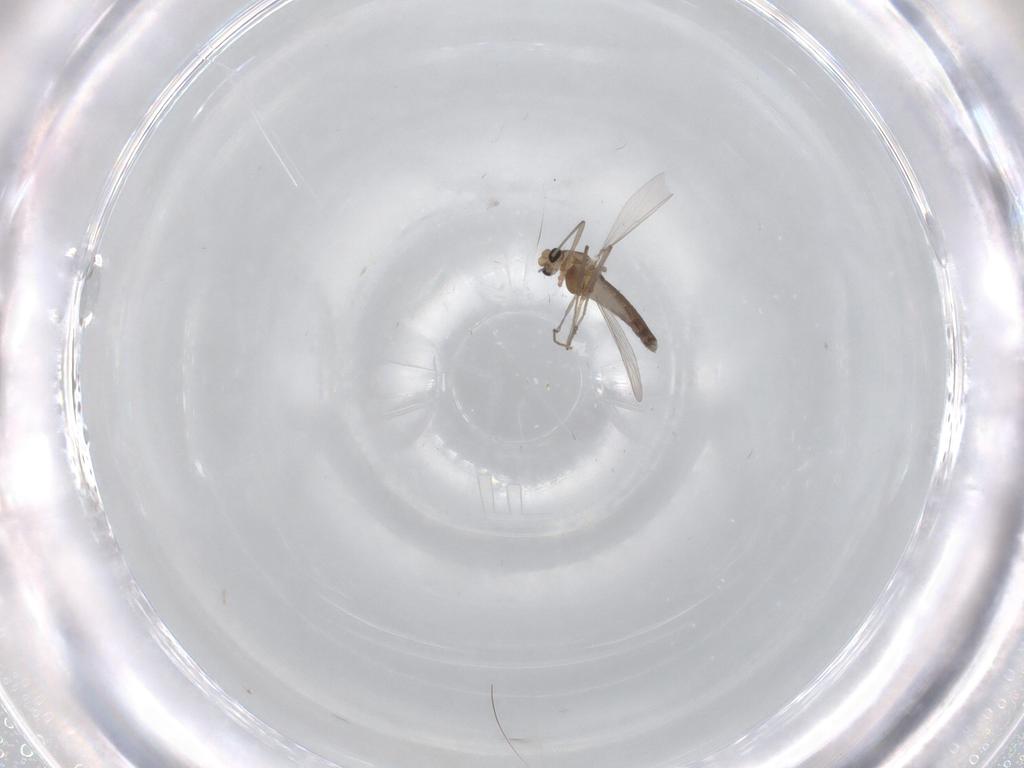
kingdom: Animalia
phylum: Arthropoda
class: Insecta
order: Diptera
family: Chironomidae
